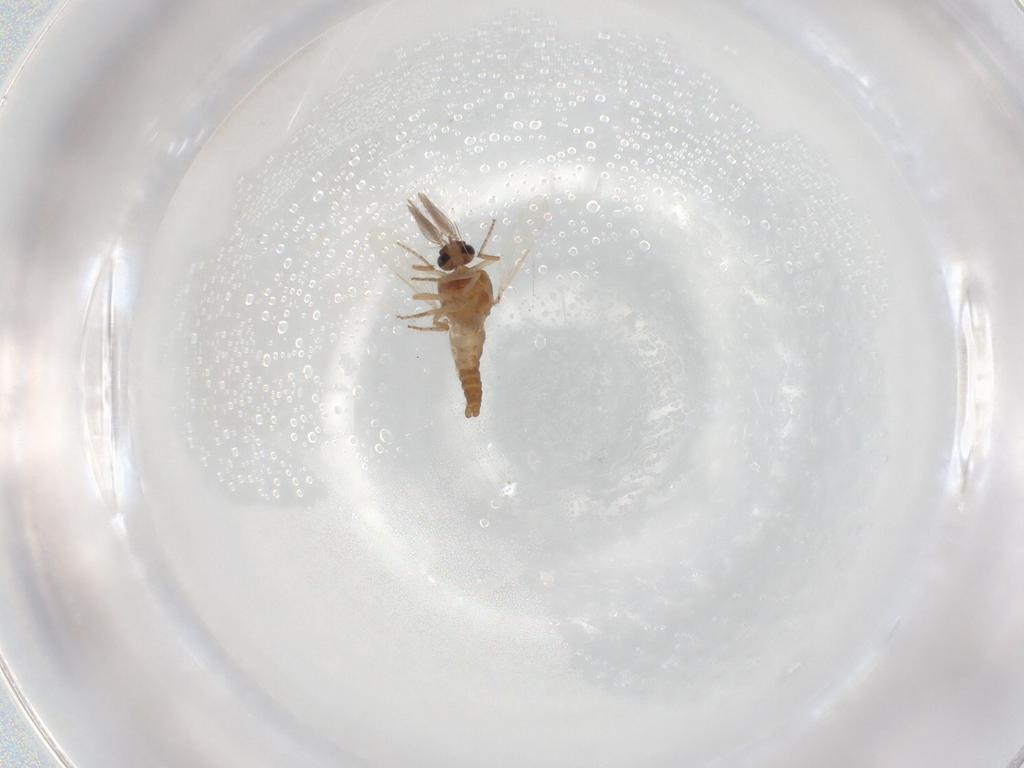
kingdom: Animalia
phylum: Arthropoda
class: Insecta
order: Diptera
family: Ceratopogonidae
